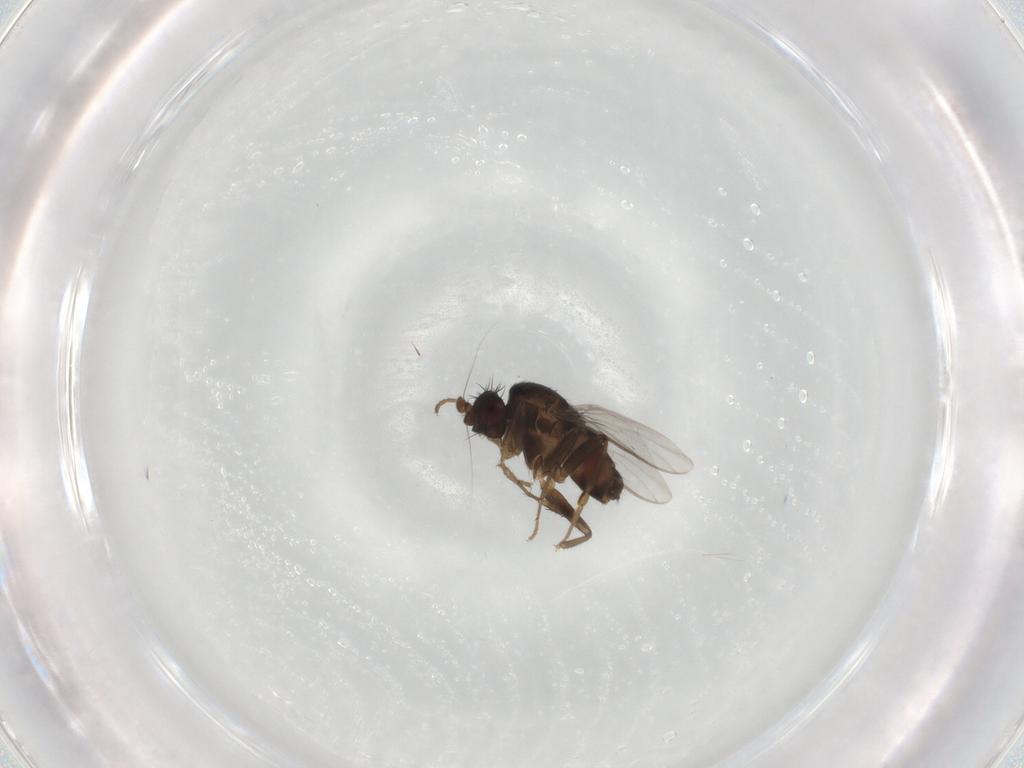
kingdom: Animalia
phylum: Arthropoda
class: Insecta
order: Diptera
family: Sphaeroceridae
